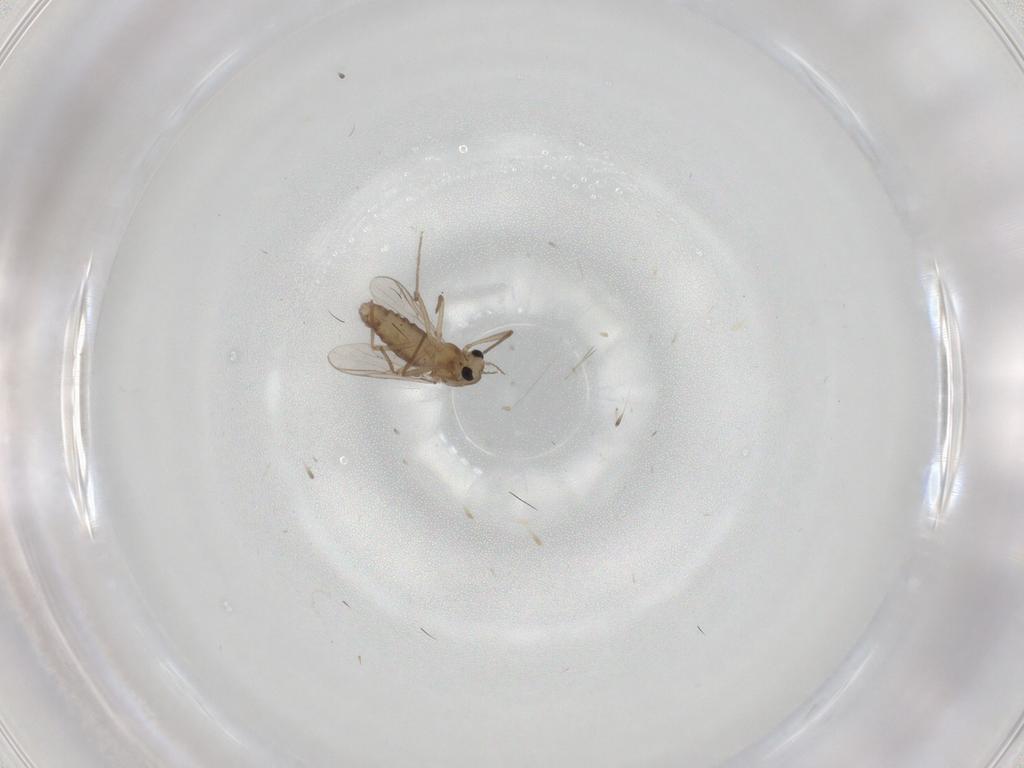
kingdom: Animalia
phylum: Arthropoda
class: Insecta
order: Diptera
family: Chironomidae
